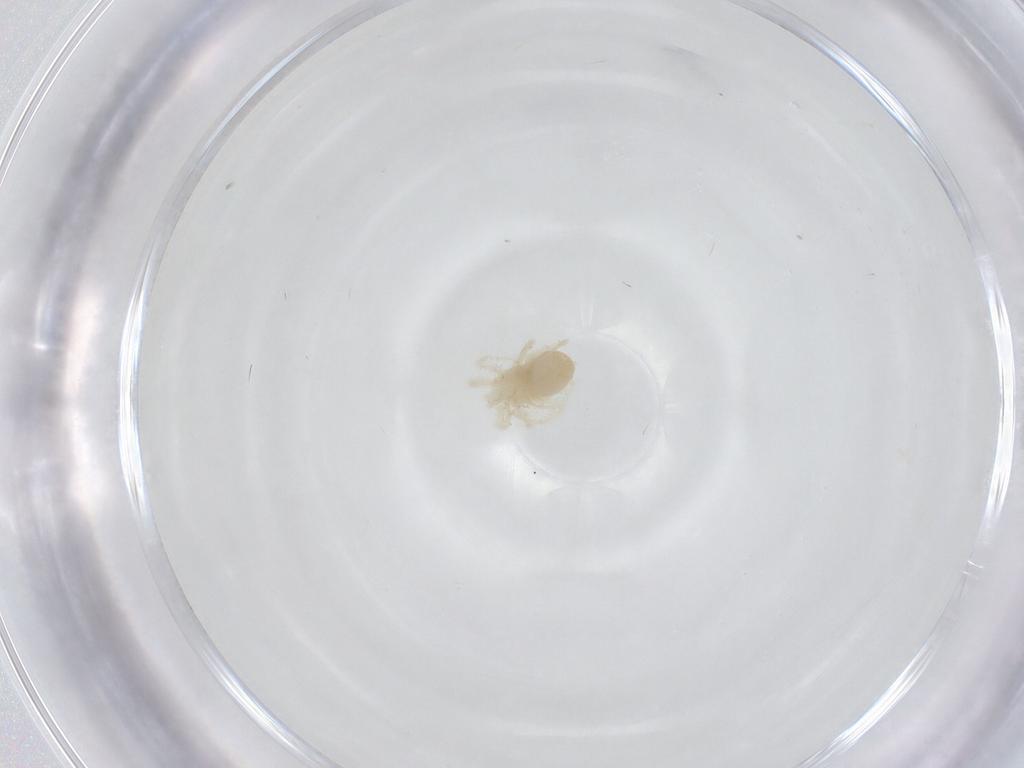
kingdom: Animalia
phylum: Arthropoda
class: Arachnida
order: Trombidiformes
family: Anystidae
